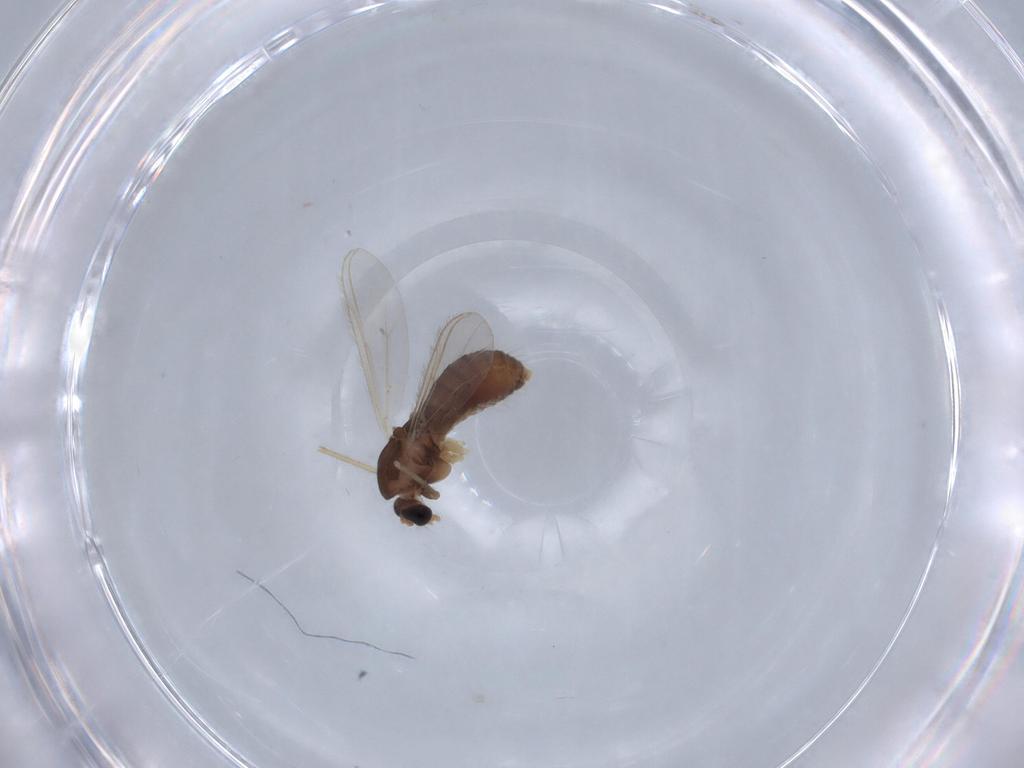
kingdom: Animalia
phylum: Arthropoda
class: Insecta
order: Diptera
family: Chironomidae
